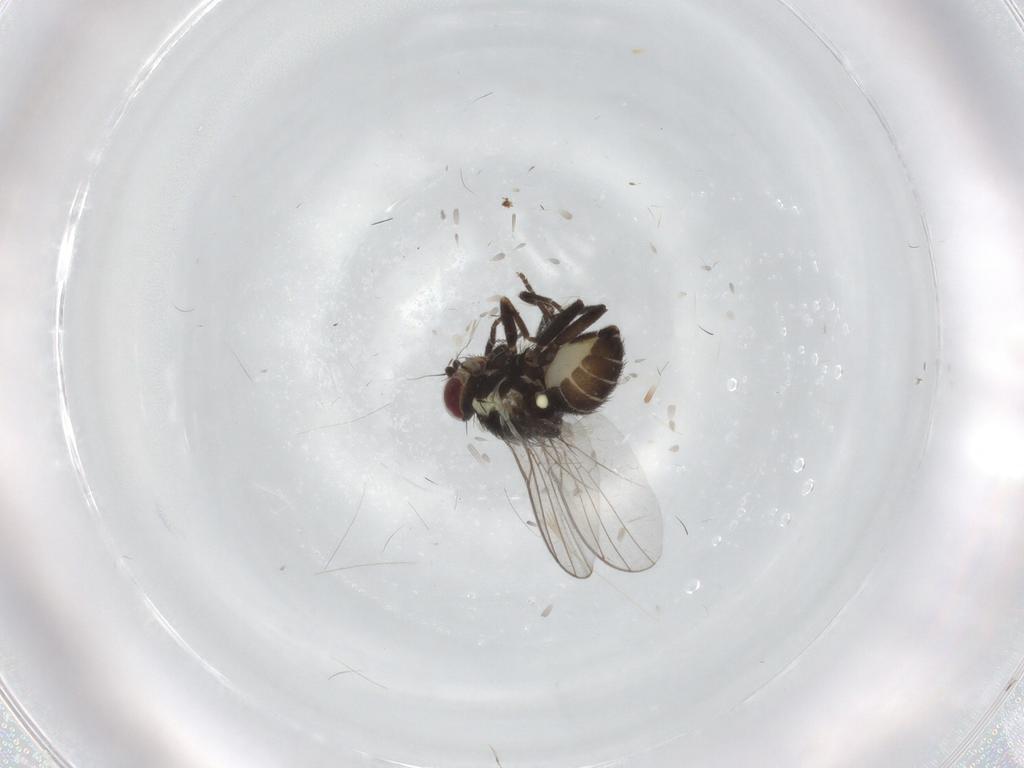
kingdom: Animalia
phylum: Arthropoda
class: Insecta
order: Diptera
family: Agromyzidae
